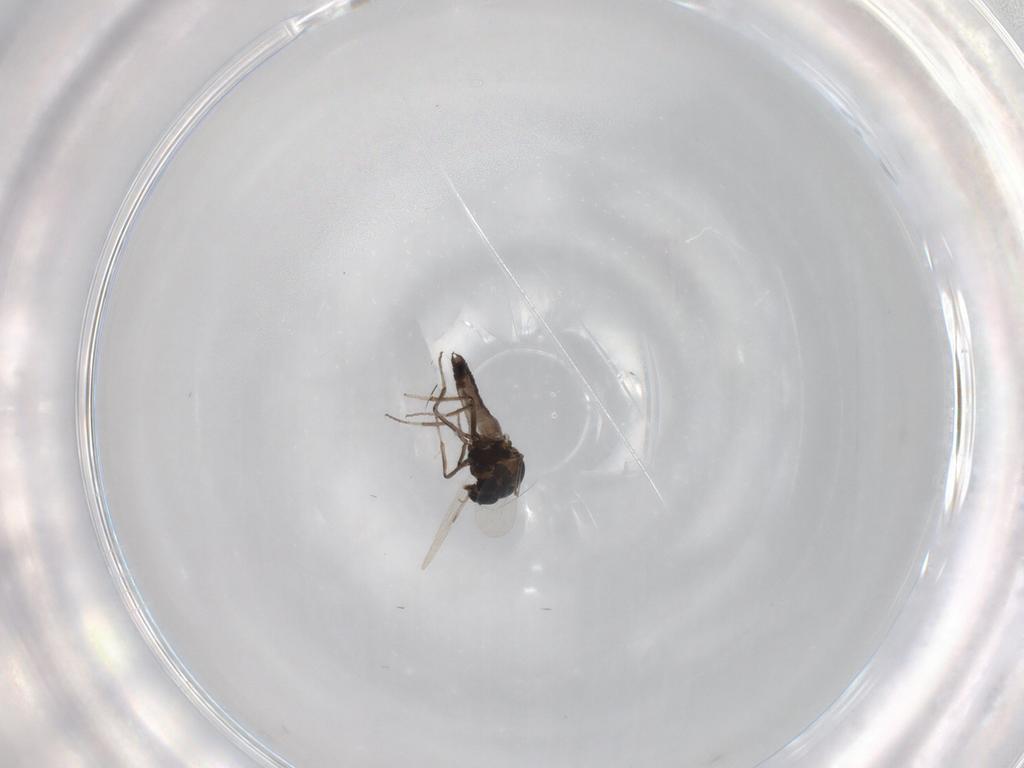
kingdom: Animalia
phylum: Arthropoda
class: Insecta
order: Diptera
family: Ceratopogonidae
